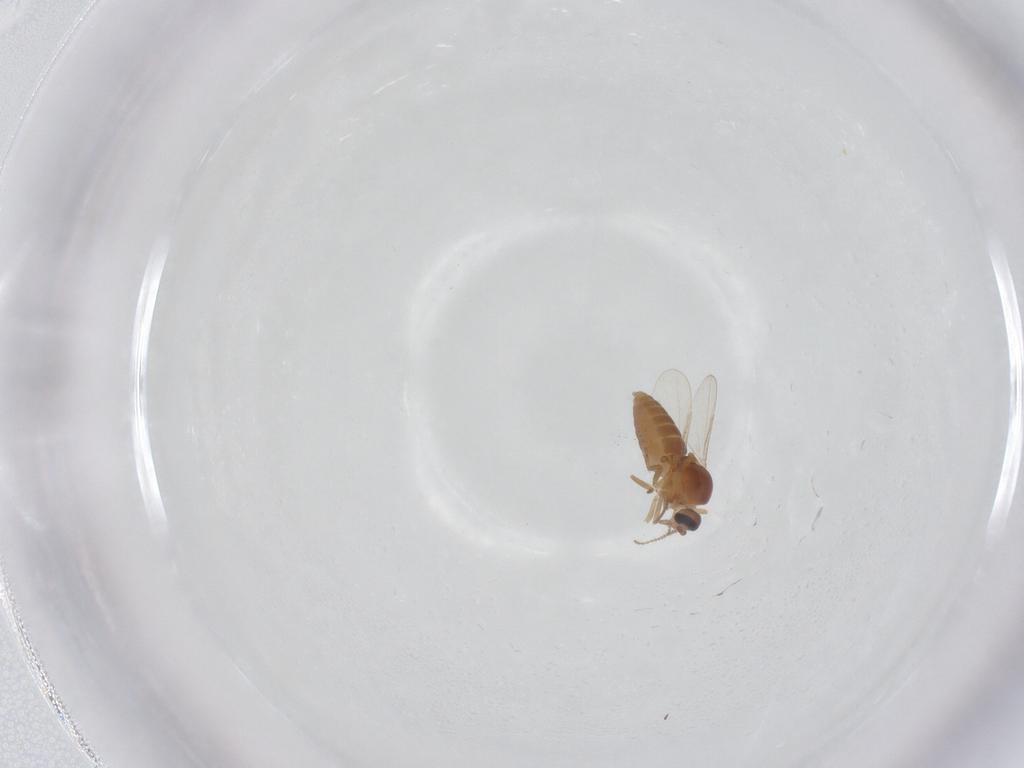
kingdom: Animalia
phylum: Arthropoda
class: Insecta
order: Diptera
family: Ceratopogonidae
